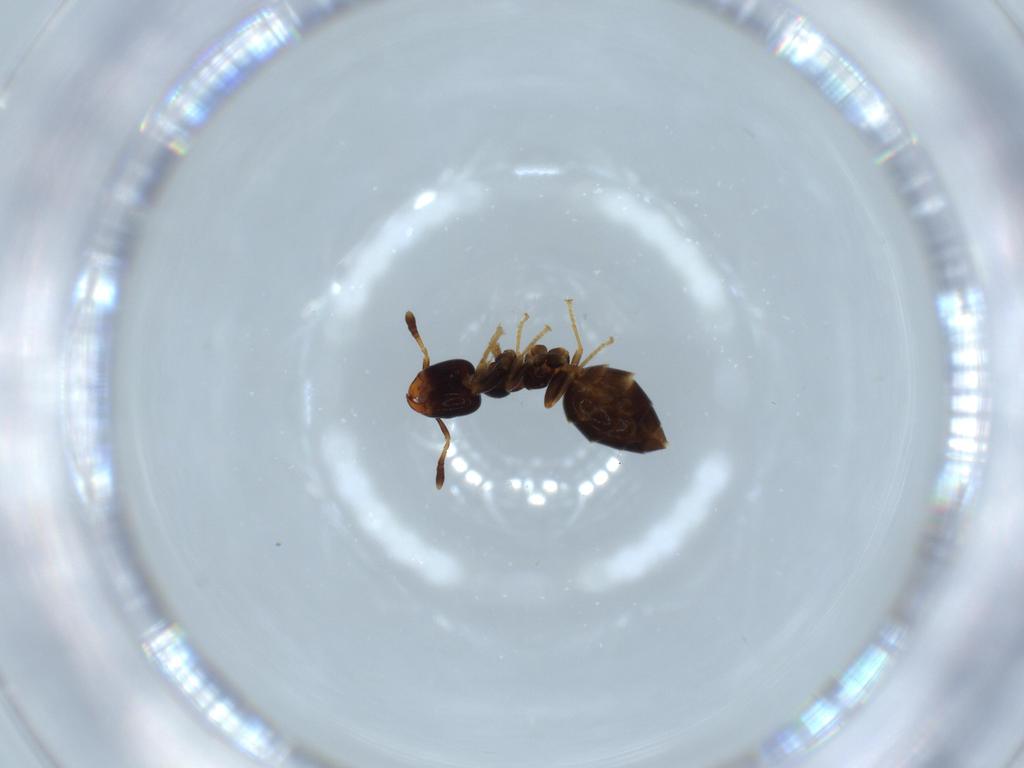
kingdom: Animalia
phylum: Arthropoda
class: Insecta
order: Hymenoptera
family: Formicidae
